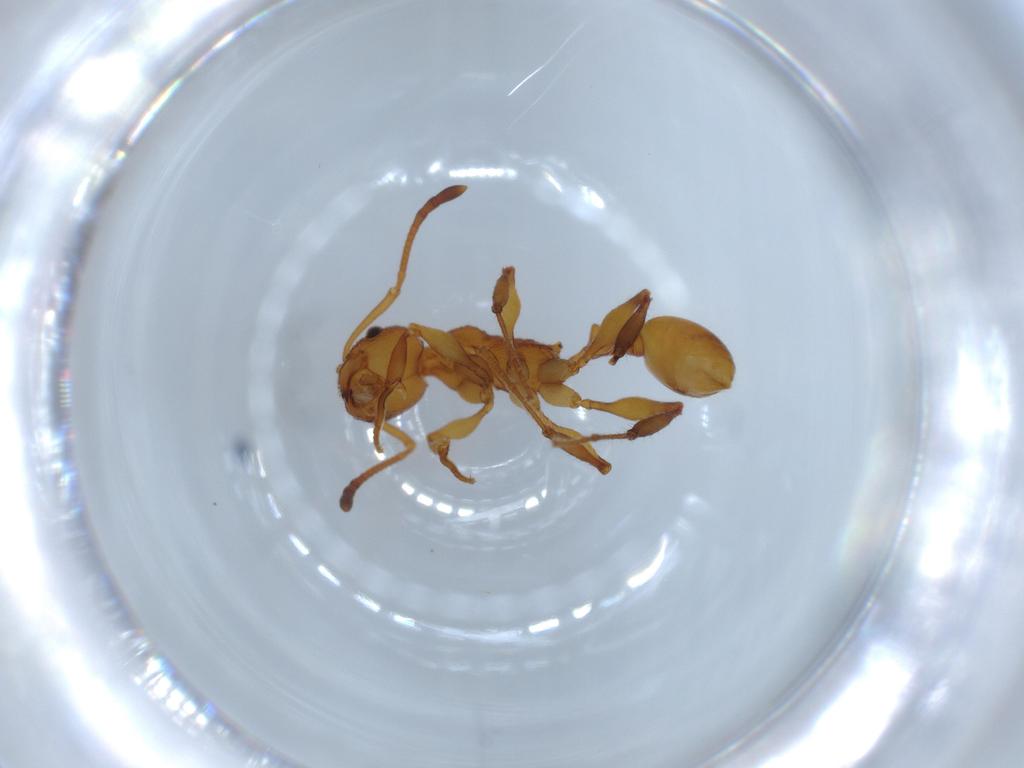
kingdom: Animalia
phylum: Arthropoda
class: Insecta
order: Hymenoptera
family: Formicidae
